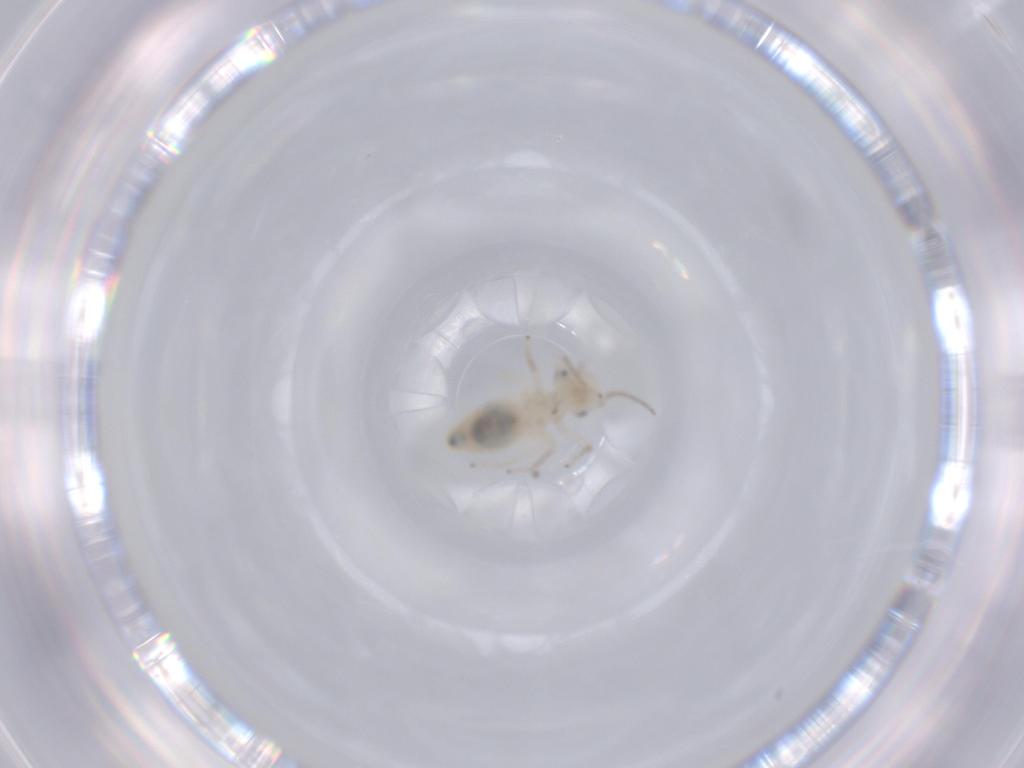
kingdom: Animalia
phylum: Arthropoda
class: Insecta
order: Psocodea
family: Caeciliusidae
